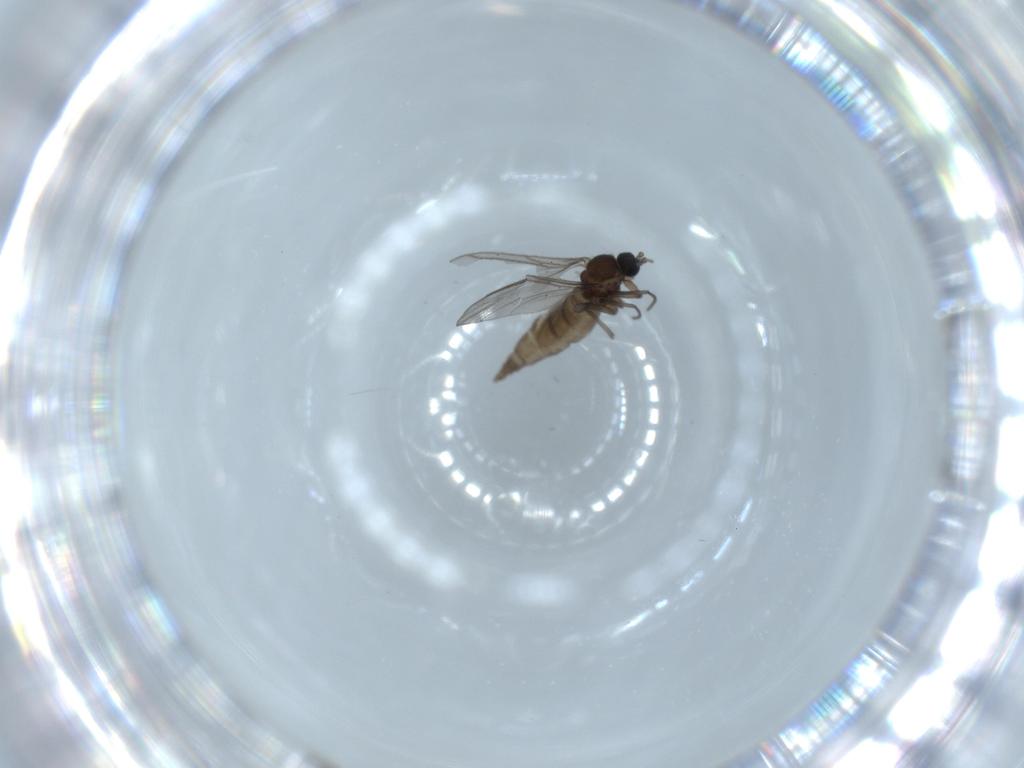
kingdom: Animalia
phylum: Arthropoda
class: Insecta
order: Diptera
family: Sciaridae
